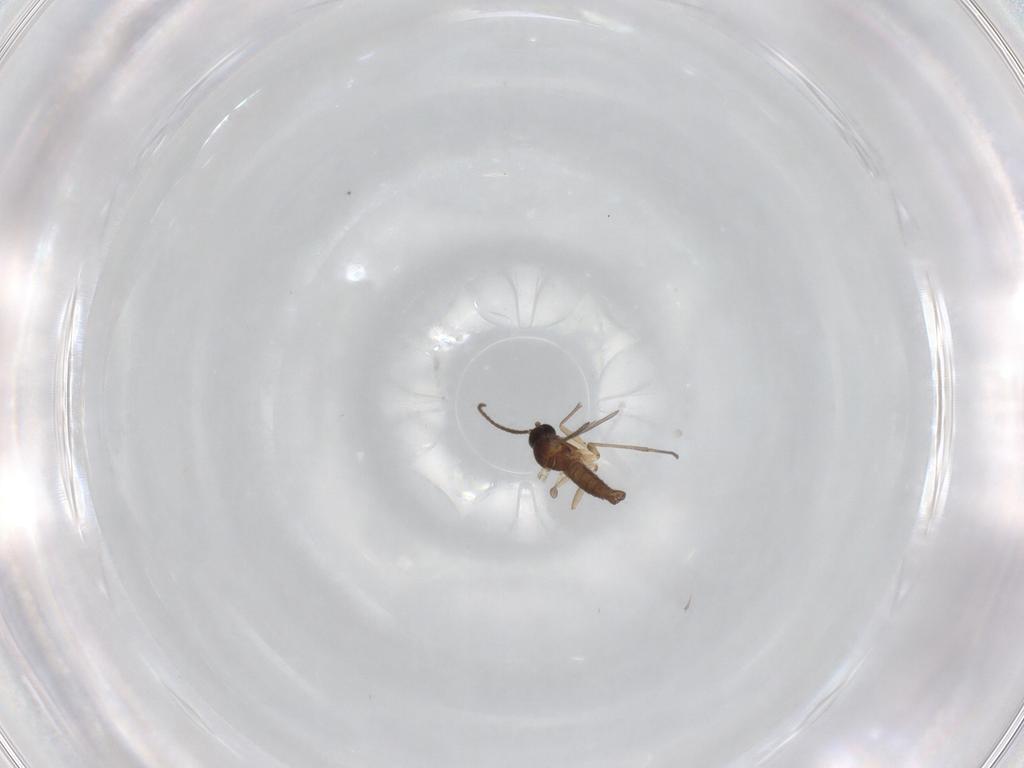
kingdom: Animalia
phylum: Arthropoda
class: Insecta
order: Diptera
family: Sciaridae
